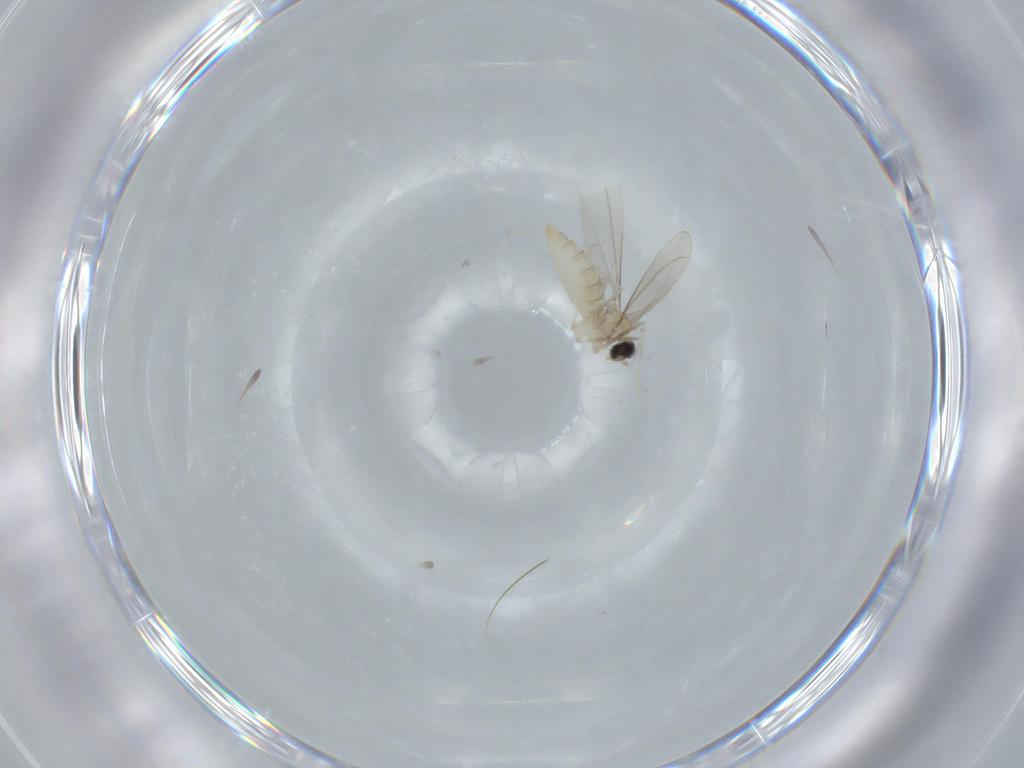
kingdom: Animalia
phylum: Arthropoda
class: Insecta
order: Diptera
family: Cecidomyiidae
